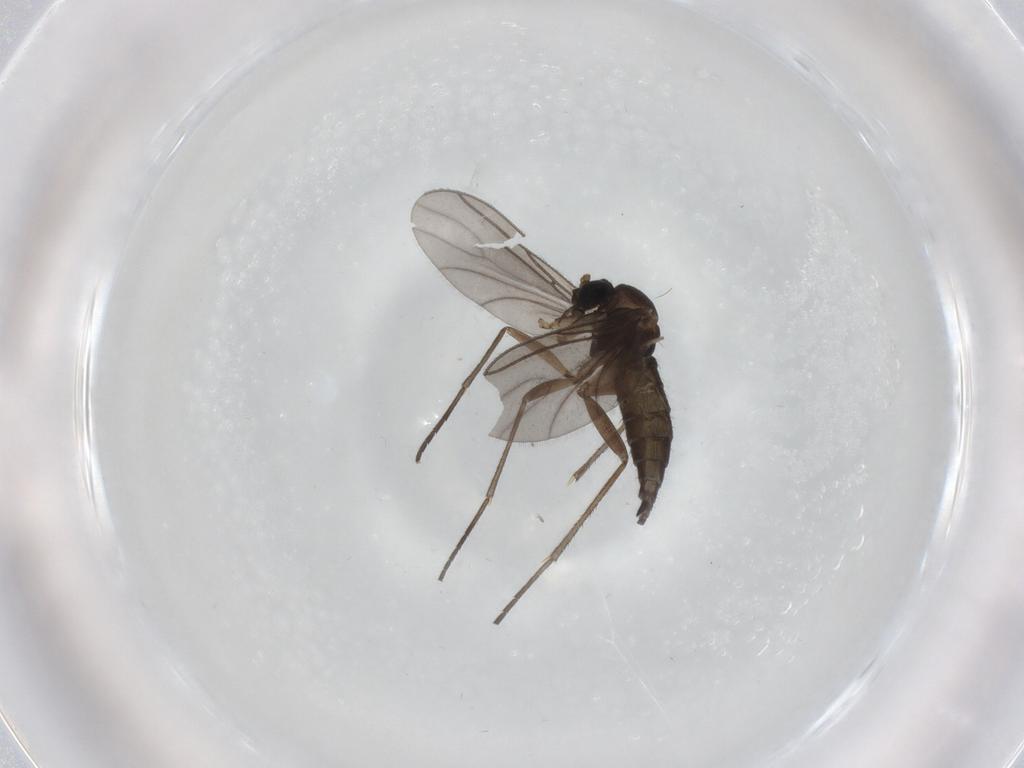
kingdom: Animalia
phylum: Arthropoda
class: Insecta
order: Diptera
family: Sciaridae
